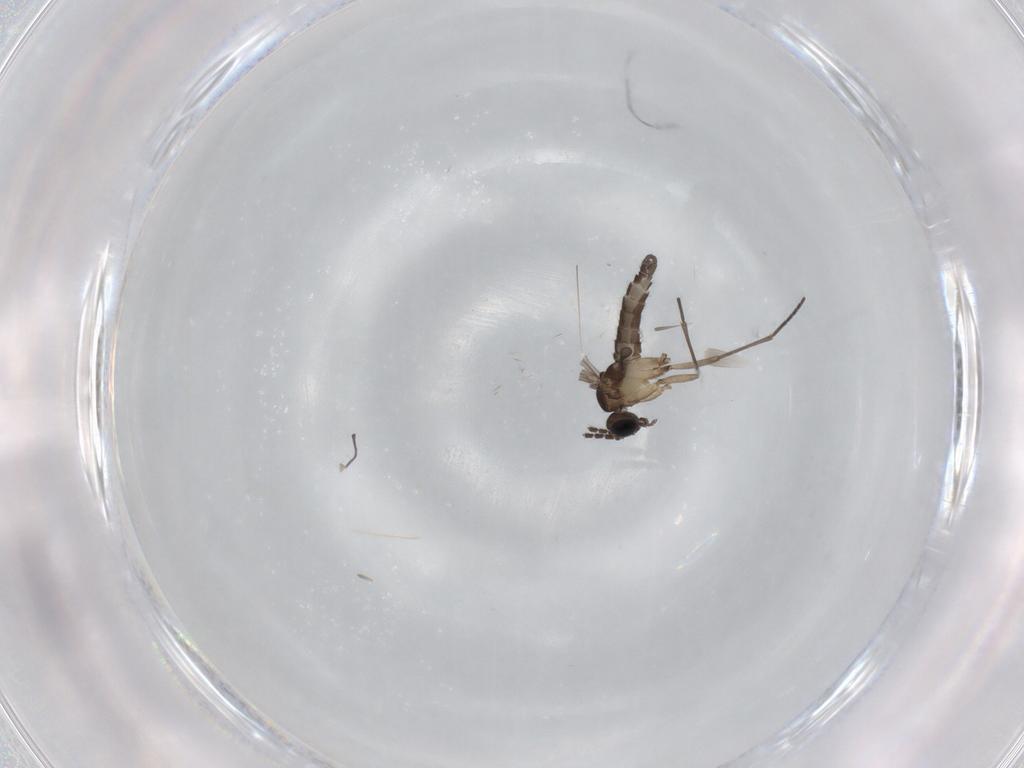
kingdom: Animalia
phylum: Arthropoda
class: Insecta
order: Diptera
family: Sciaridae
